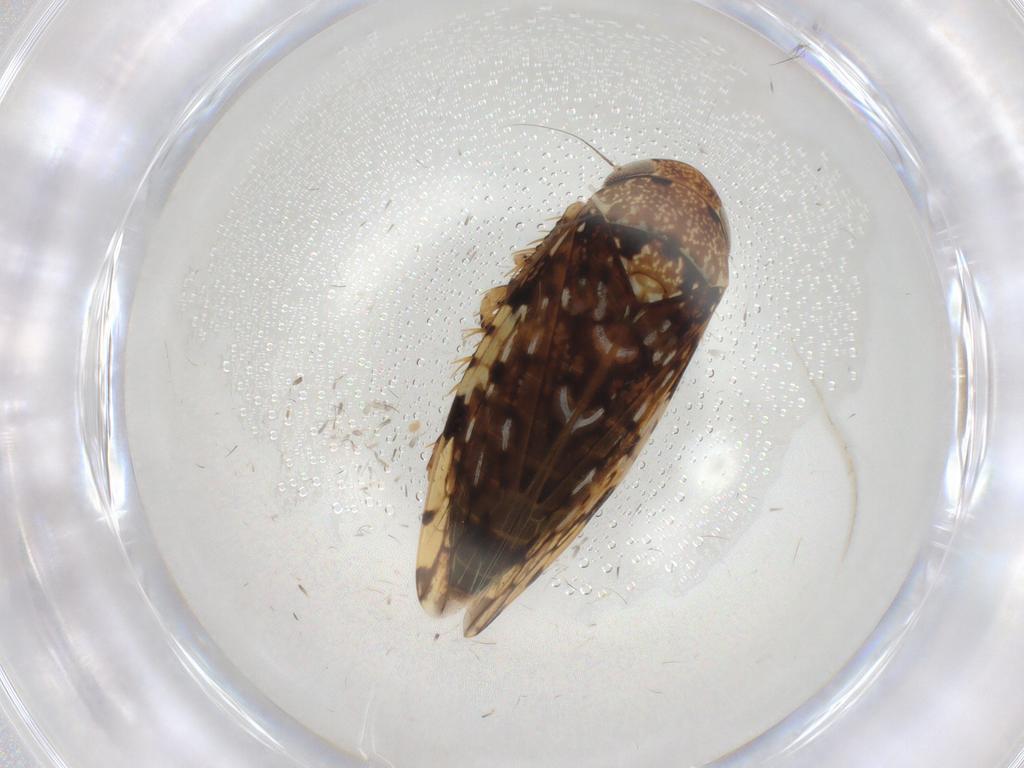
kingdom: Animalia
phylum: Arthropoda
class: Insecta
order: Hemiptera
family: Cicadellidae
